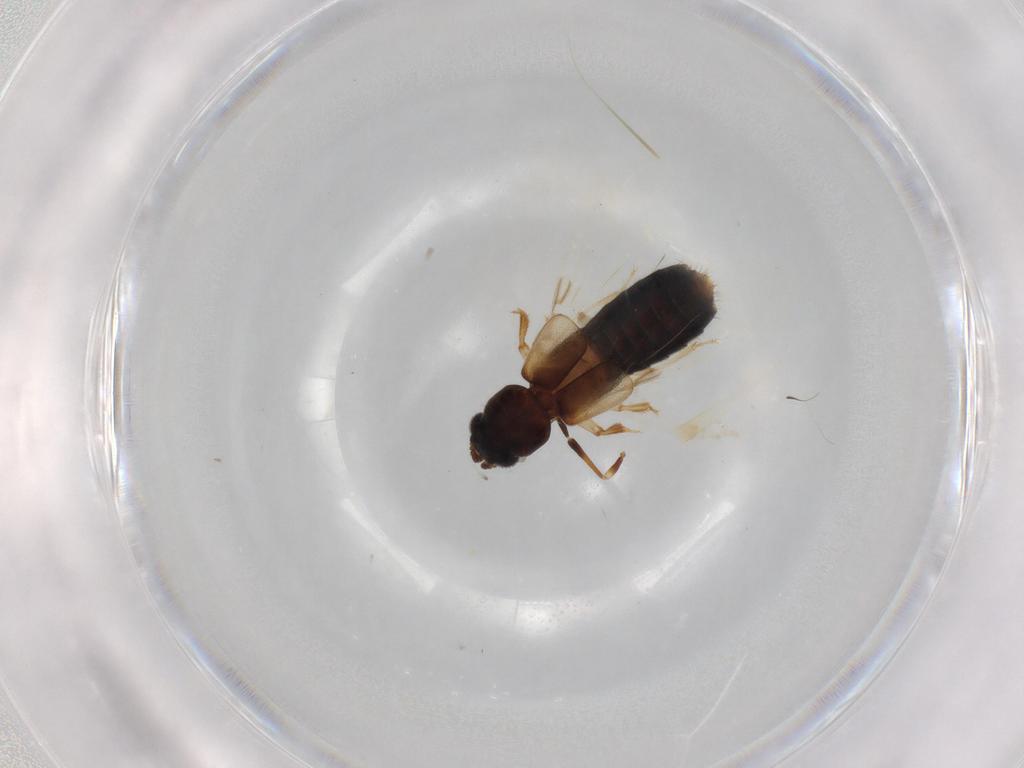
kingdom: Animalia
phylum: Arthropoda
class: Insecta
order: Coleoptera
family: Staphylinidae
